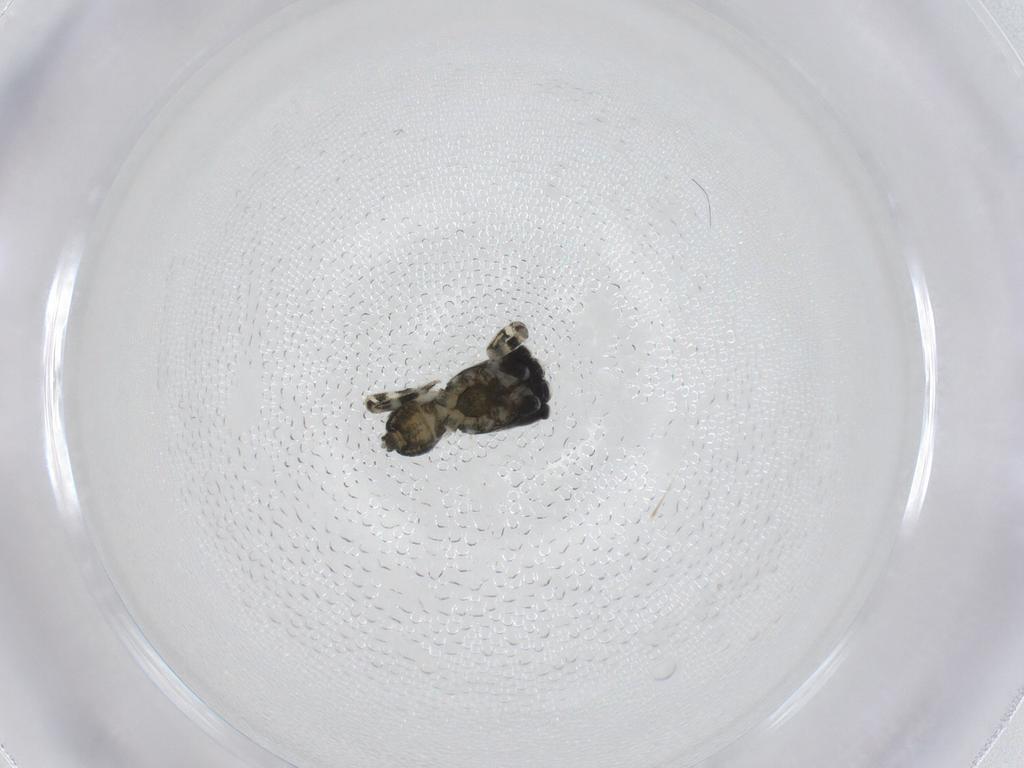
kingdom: Animalia
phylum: Arthropoda
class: Arachnida
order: Araneae
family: Salticidae
